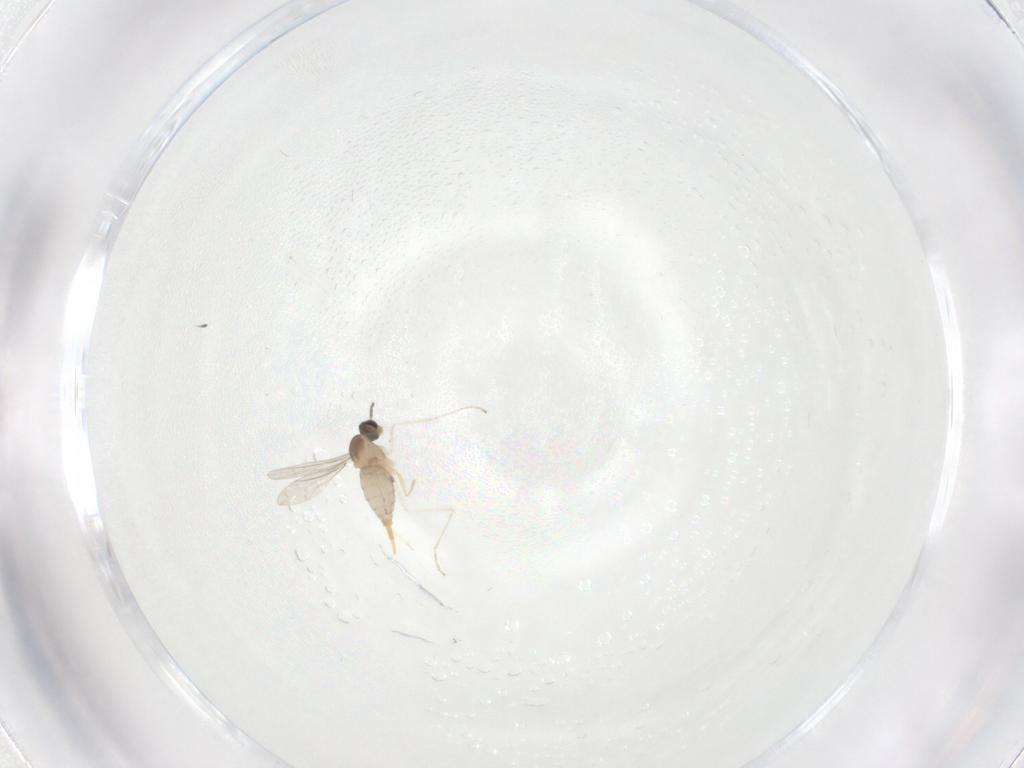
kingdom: Animalia
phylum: Arthropoda
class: Insecta
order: Diptera
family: Cecidomyiidae
